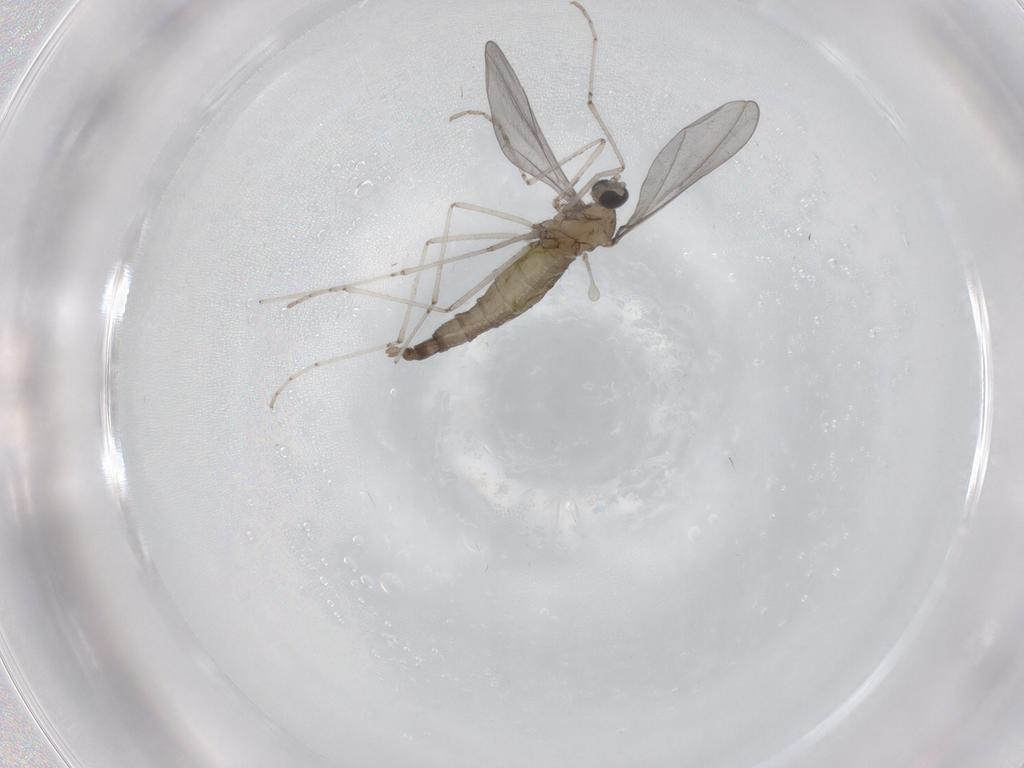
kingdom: Animalia
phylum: Arthropoda
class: Insecta
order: Diptera
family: Cecidomyiidae
